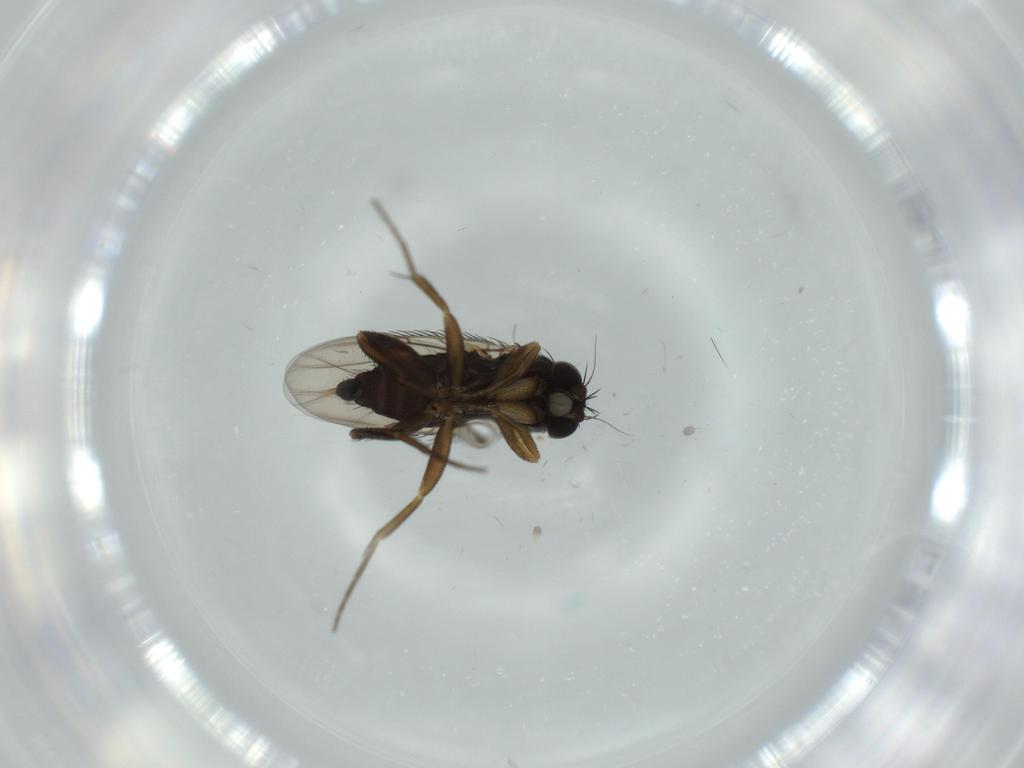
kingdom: Animalia
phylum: Arthropoda
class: Insecta
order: Diptera
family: Phoridae
